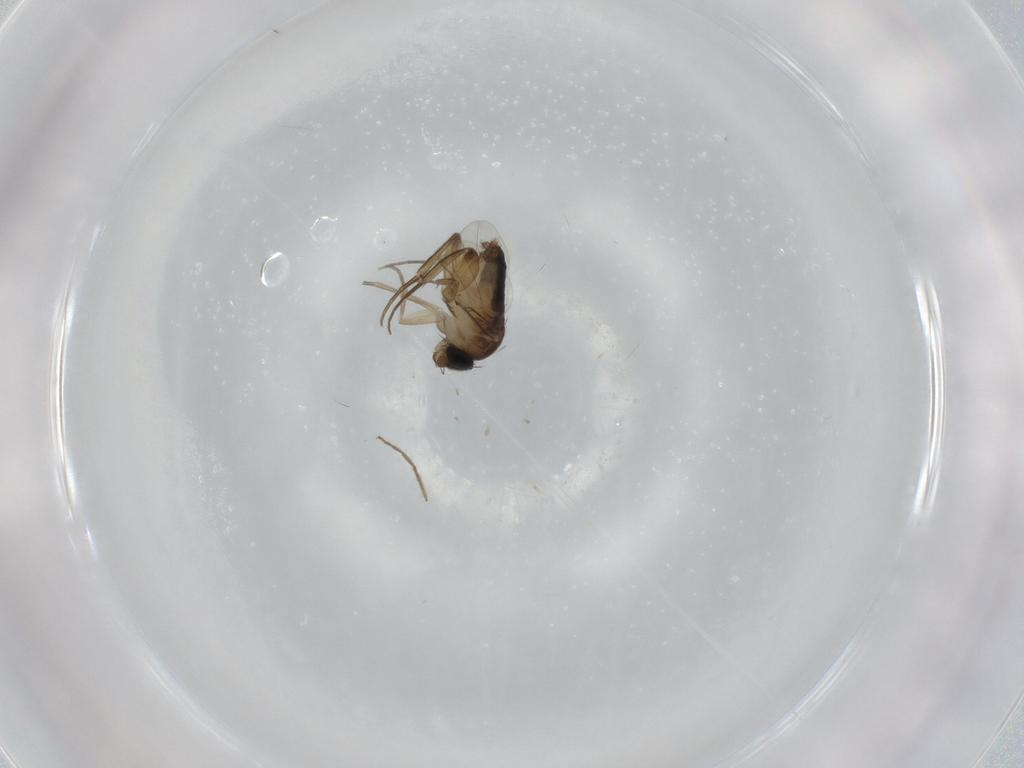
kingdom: Animalia
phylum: Arthropoda
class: Insecta
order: Diptera
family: Phoridae
